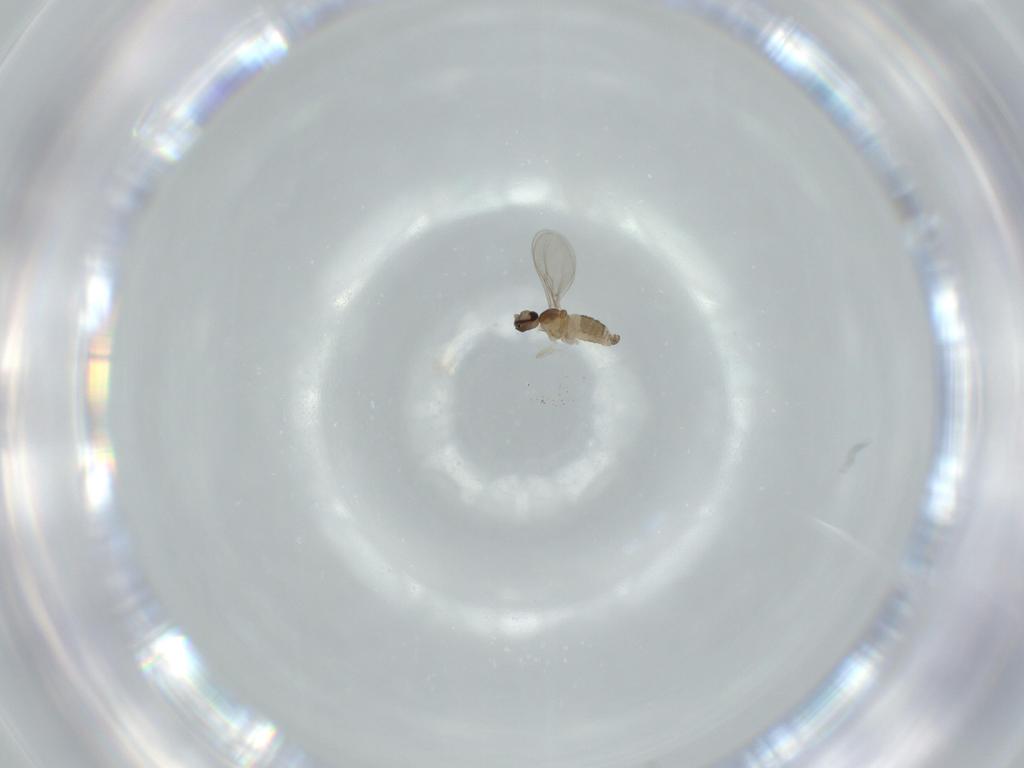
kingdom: Animalia
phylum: Arthropoda
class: Insecta
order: Diptera
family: Cecidomyiidae
